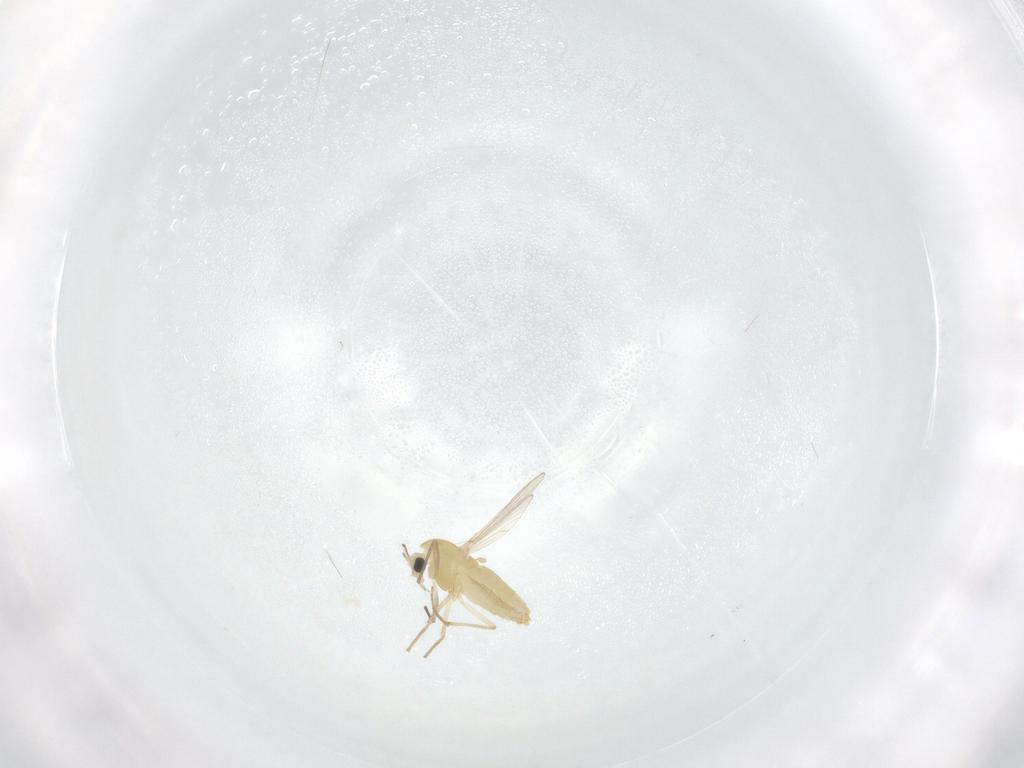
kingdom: Animalia
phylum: Arthropoda
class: Insecta
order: Diptera
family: Chironomidae
